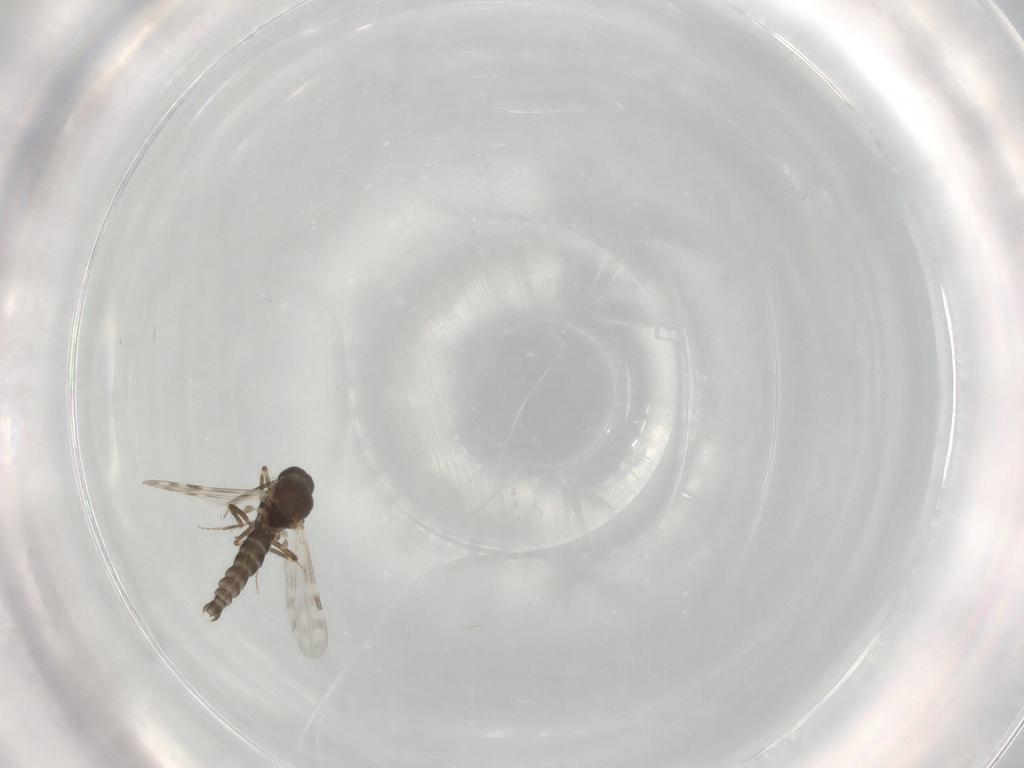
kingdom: Animalia
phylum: Arthropoda
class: Insecta
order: Diptera
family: Ceratopogonidae
